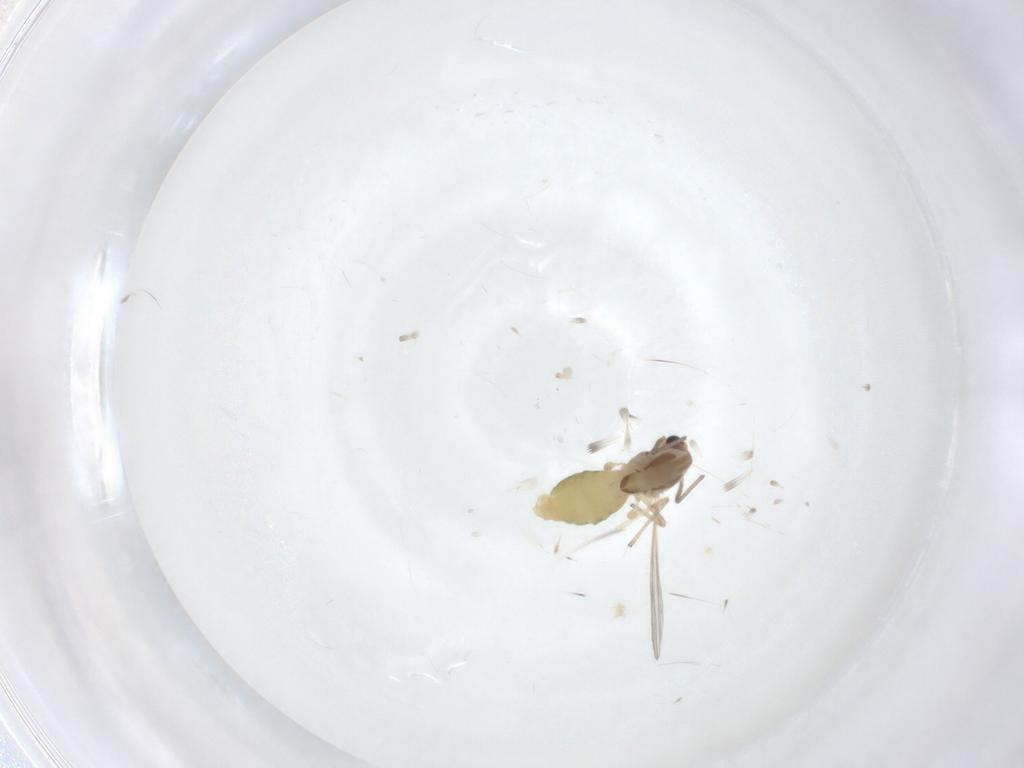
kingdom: Animalia
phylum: Arthropoda
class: Insecta
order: Diptera
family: Chironomidae
